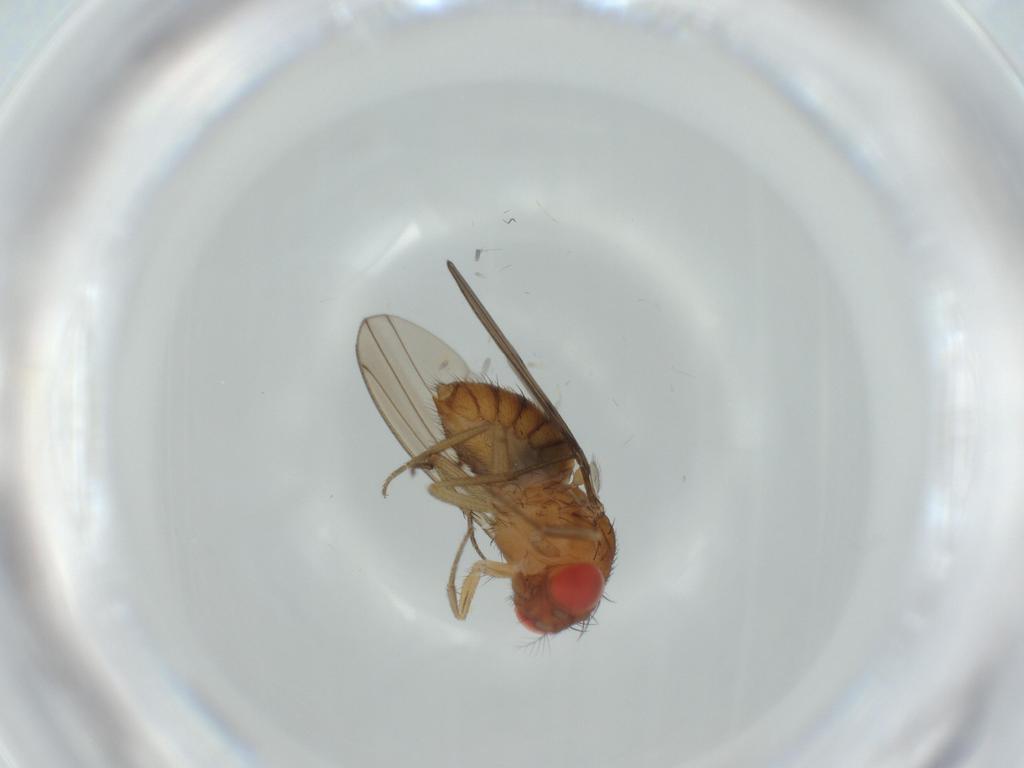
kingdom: Animalia
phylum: Arthropoda
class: Insecta
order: Diptera
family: Drosophilidae
